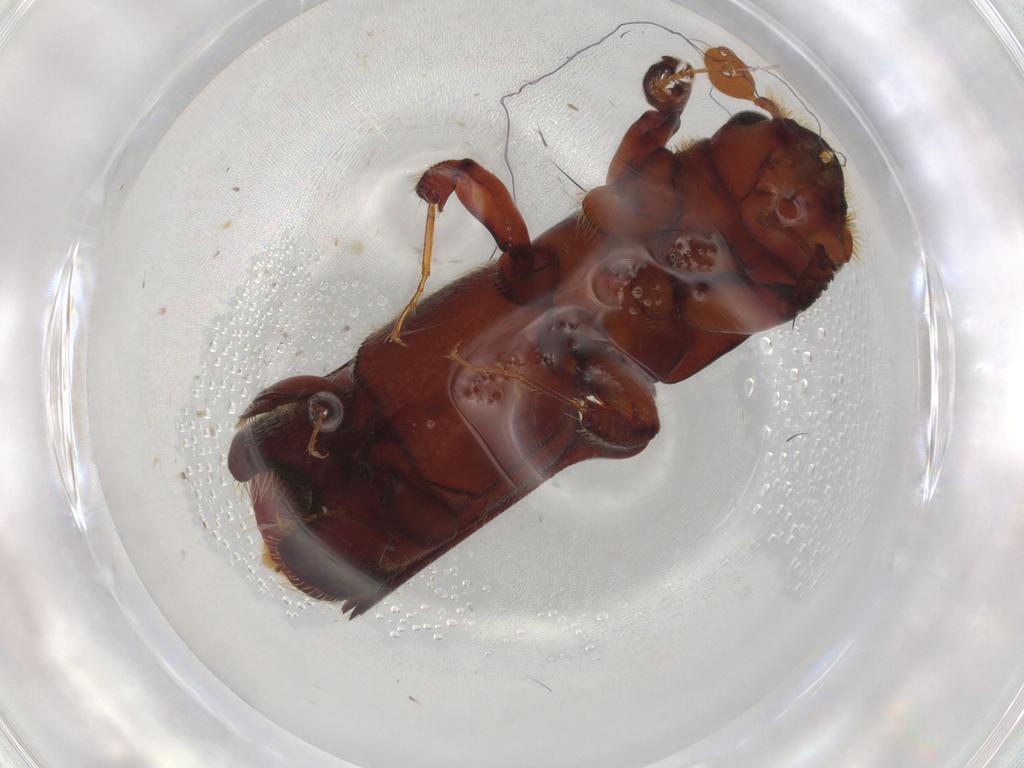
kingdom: Animalia
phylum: Arthropoda
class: Insecta
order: Coleoptera
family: Curculionidae
